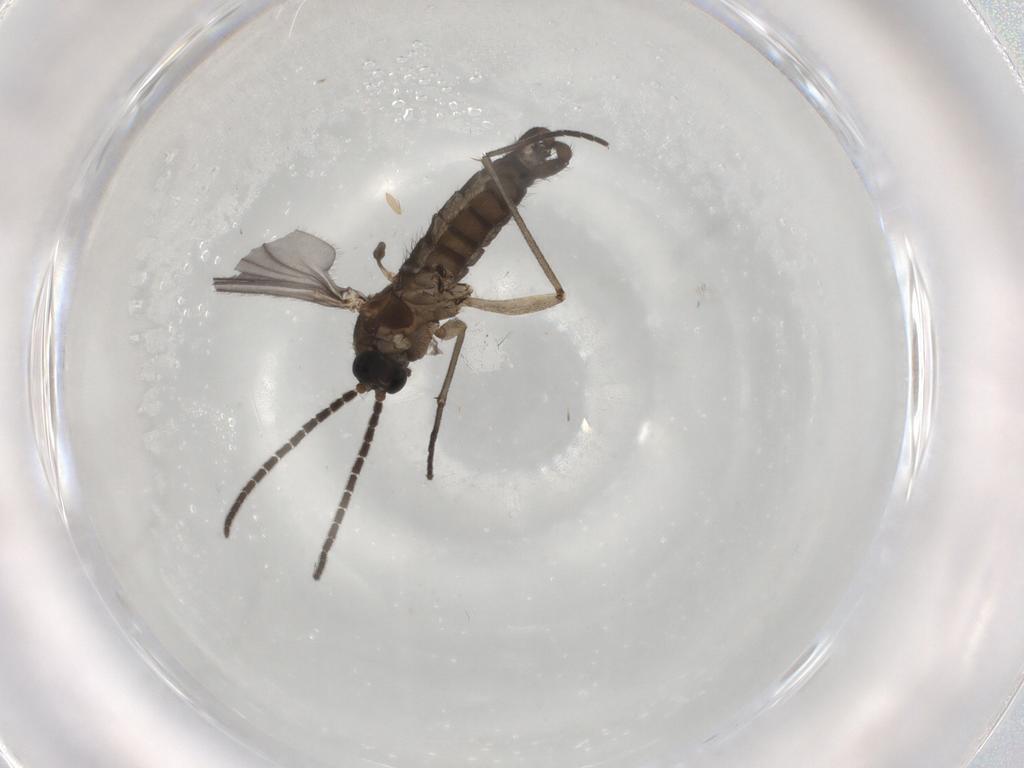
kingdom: Animalia
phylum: Arthropoda
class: Insecta
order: Diptera
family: Sciaridae
